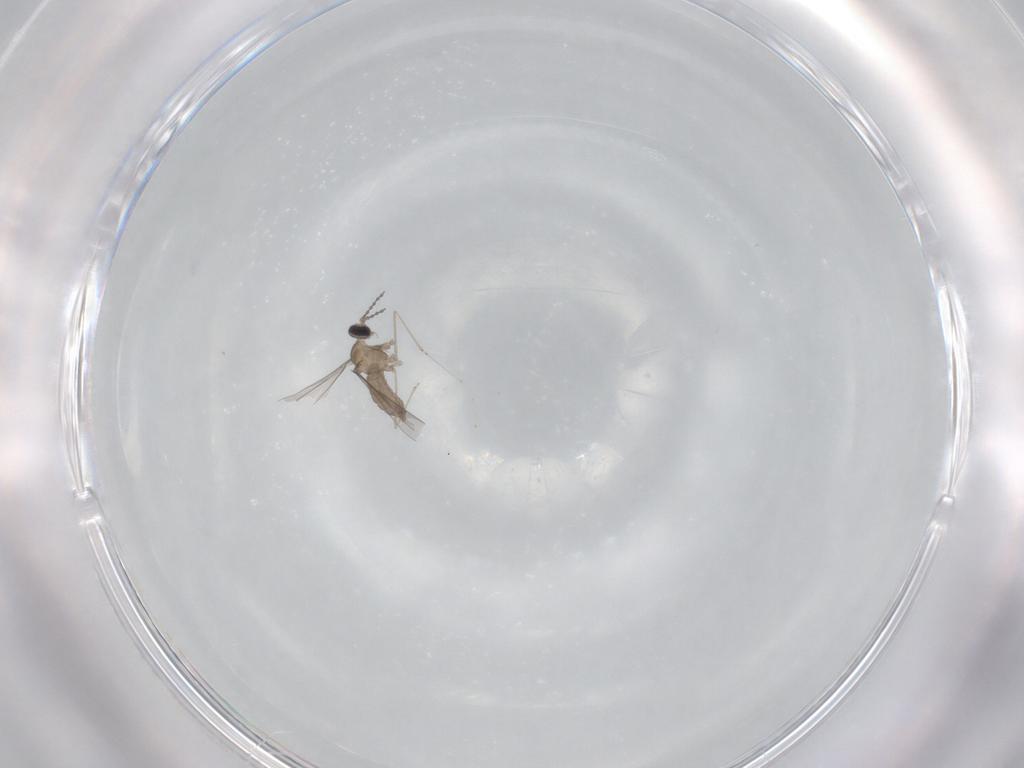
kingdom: Animalia
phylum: Arthropoda
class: Insecta
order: Diptera
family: Cecidomyiidae
